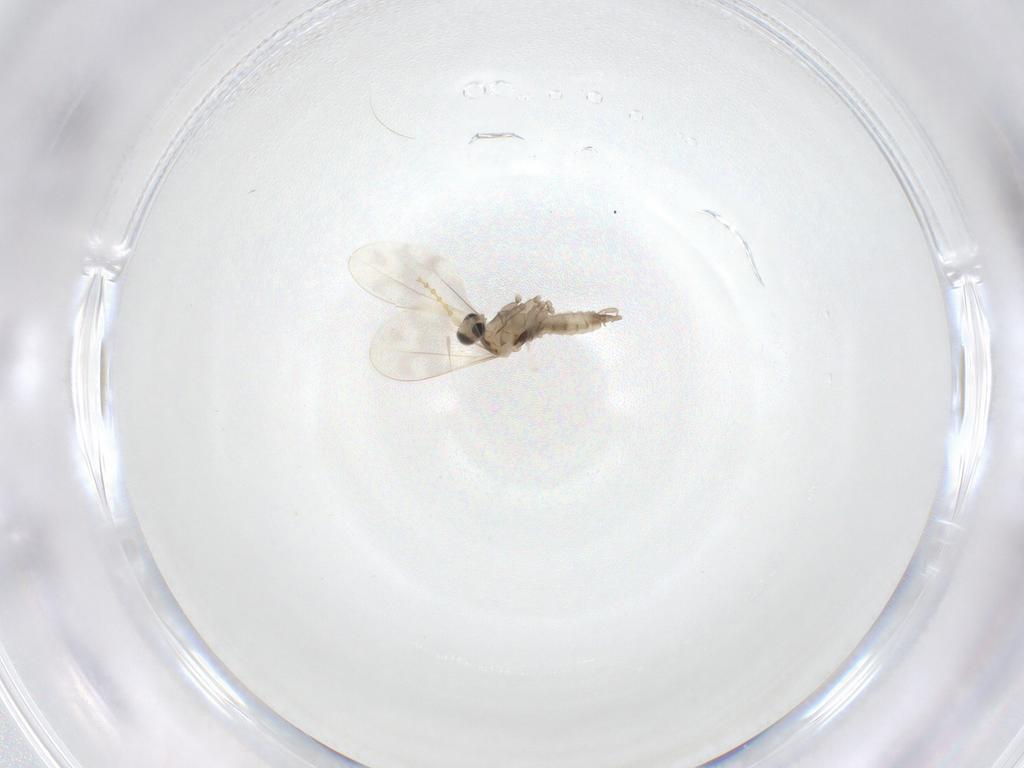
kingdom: Animalia
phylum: Arthropoda
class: Insecta
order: Diptera
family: Cecidomyiidae
